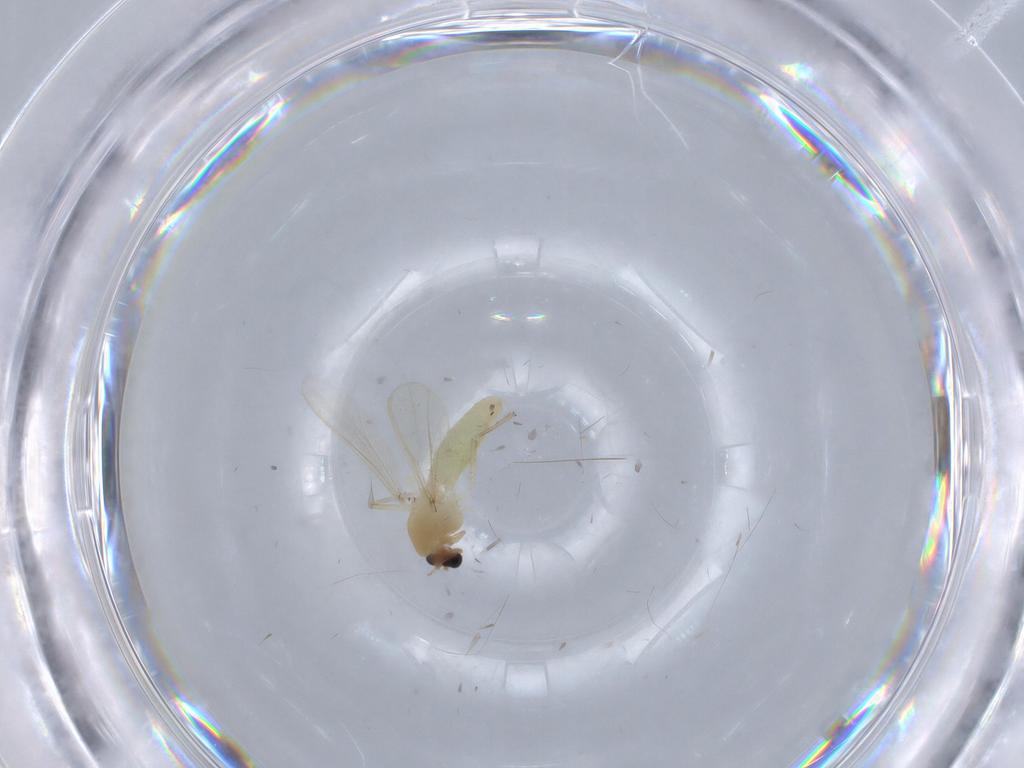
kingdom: Animalia
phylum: Arthropoda
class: Insecta
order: Diptera
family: Chironomidae
